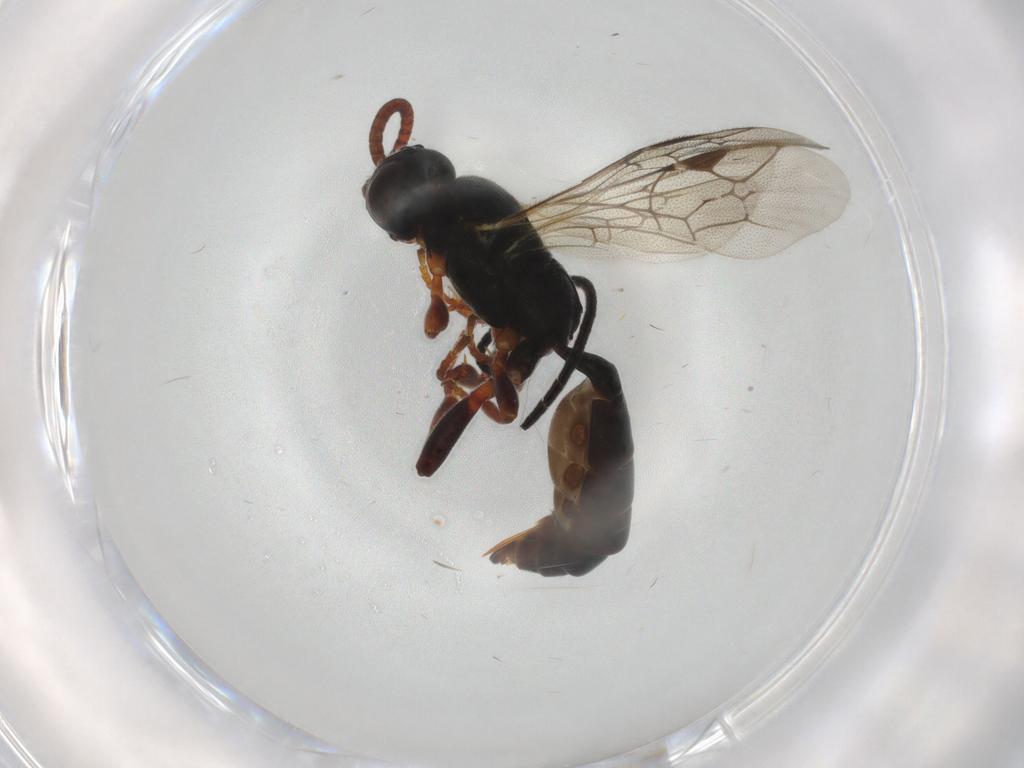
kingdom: Animalia
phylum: Arthropoda
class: Insecta
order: Hymenoptera
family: Ichneumonidae
